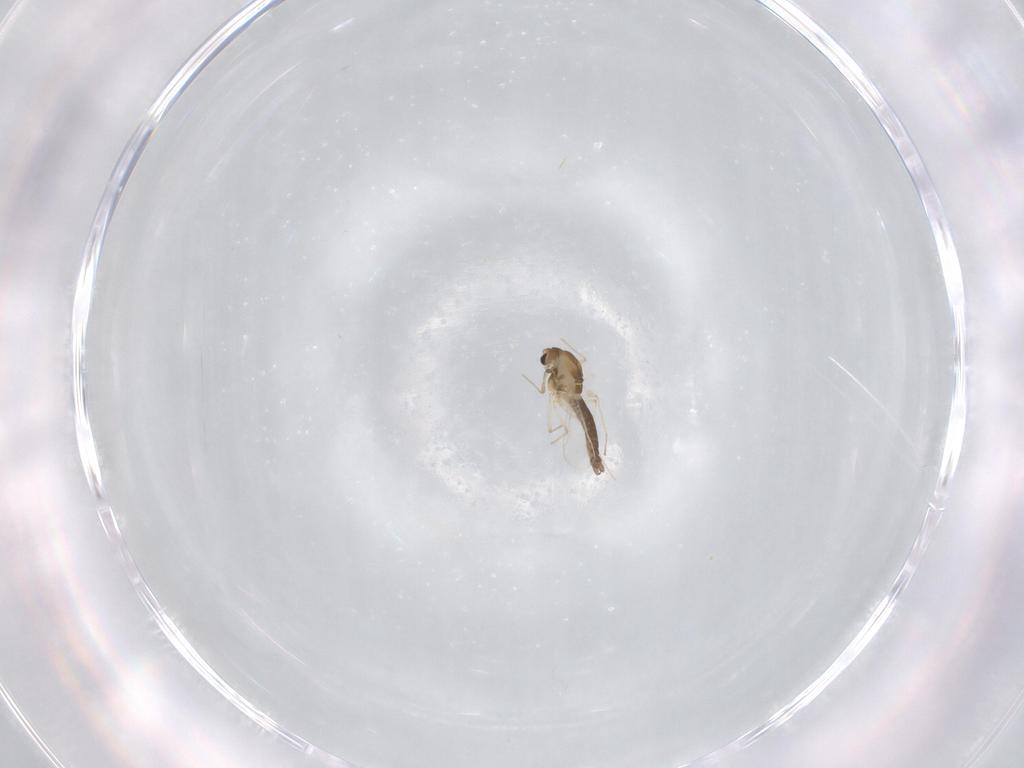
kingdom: Animalia
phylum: Arthropoda
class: Insecta
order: Diptera
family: Chironomidae
